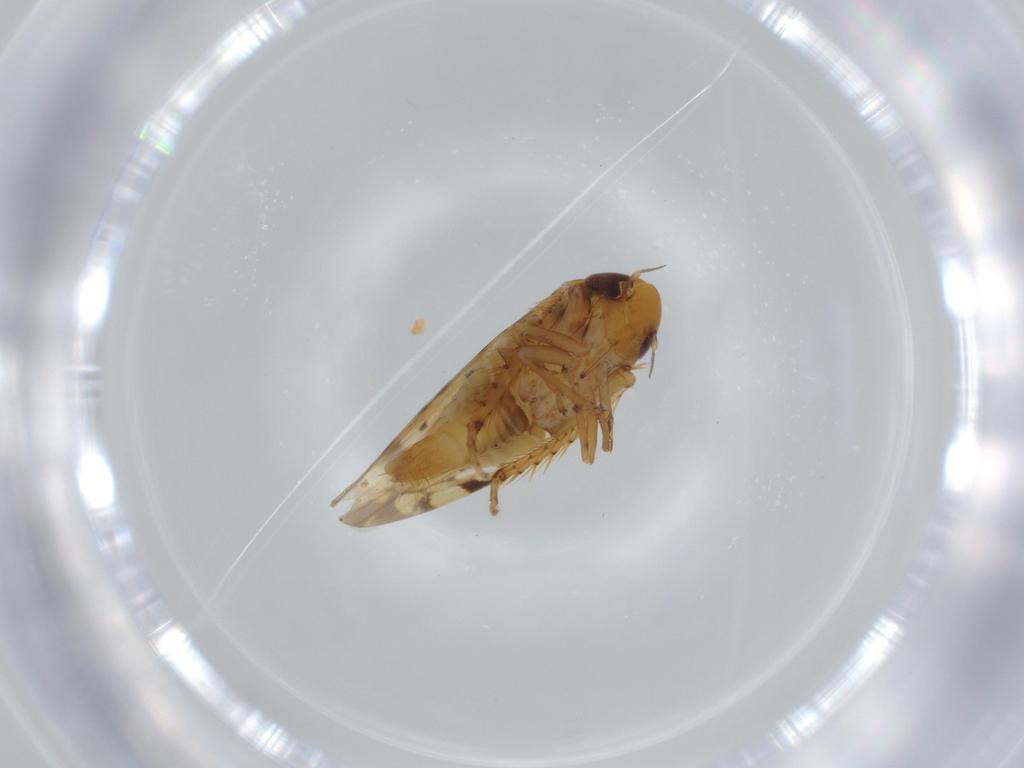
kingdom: Animalia
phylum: Arthropoda
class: Insecta
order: Hemiptera
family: Cicadellidae
